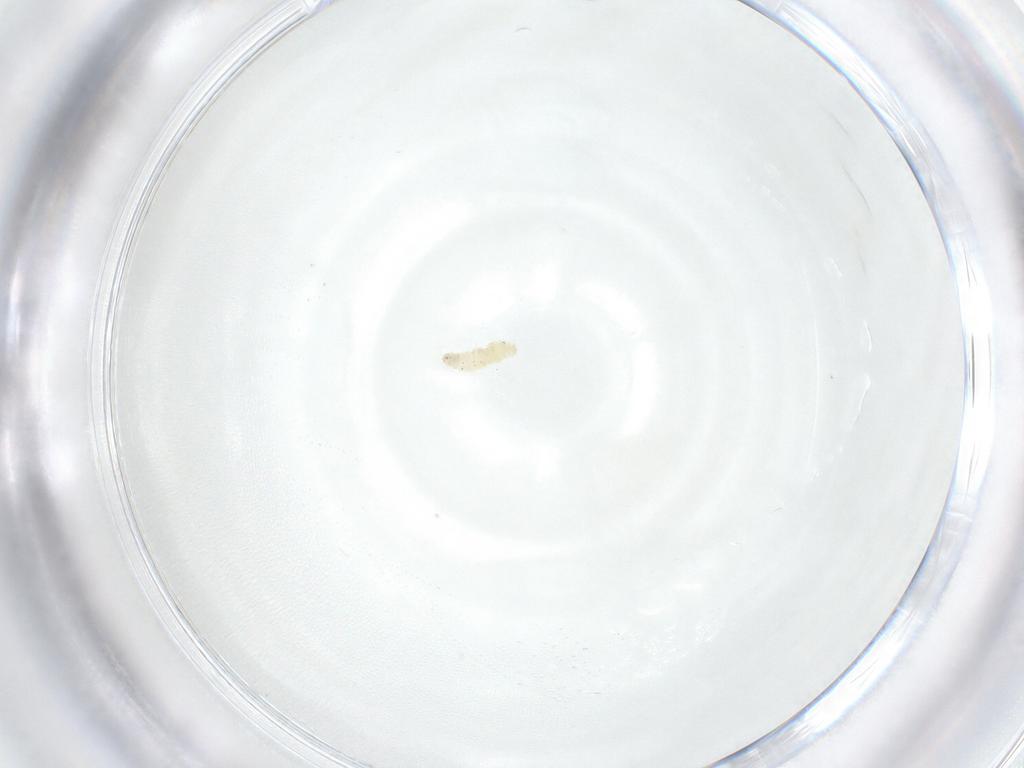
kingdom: Animalia
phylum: Arthropoda
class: Insecta
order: Diptera
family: Sarcophagidae
